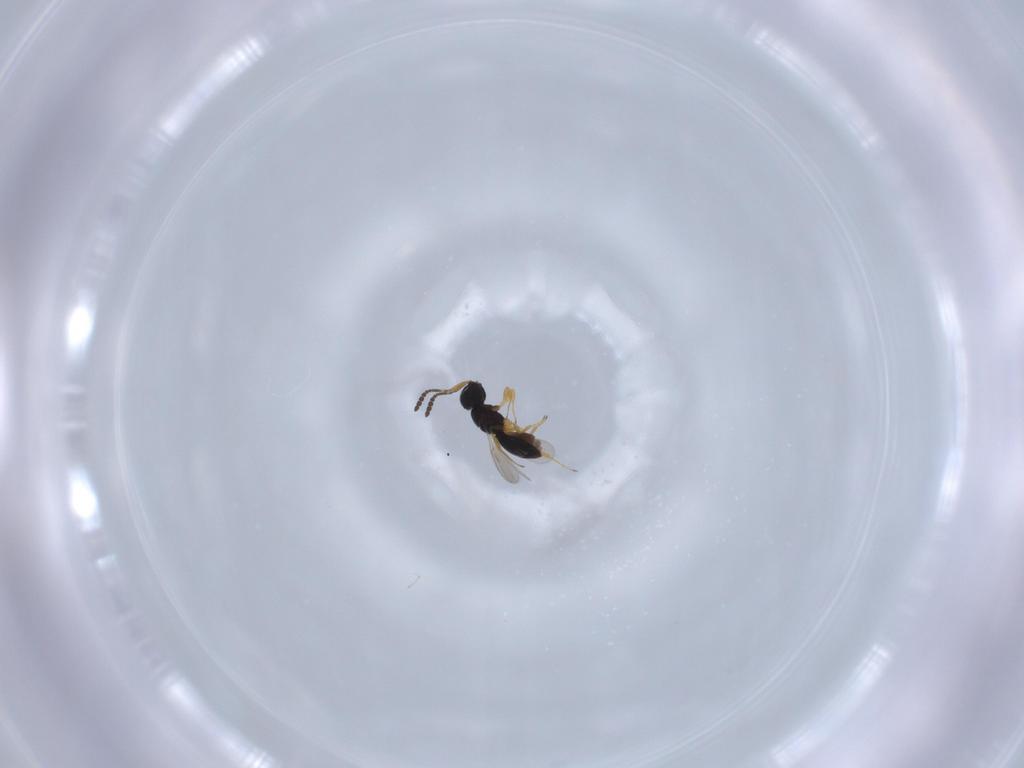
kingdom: Animalia
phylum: Arthropoda
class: Insecta
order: Hymenoptera
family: Scelionidae
